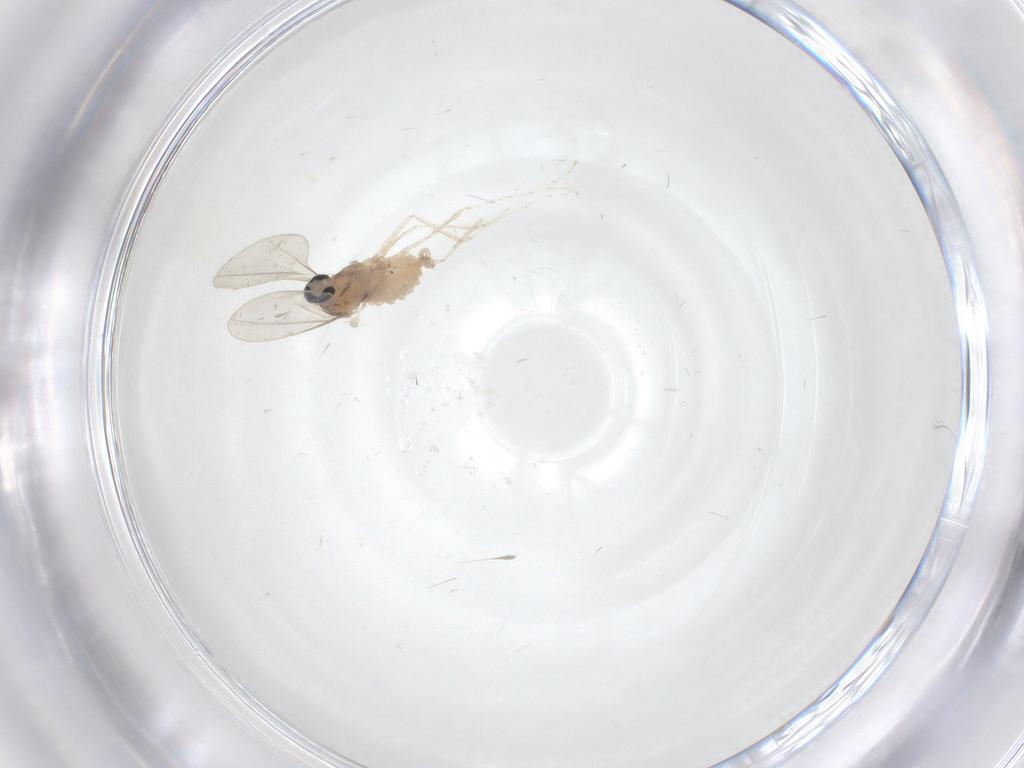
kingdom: Animalia
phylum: Arthropoda
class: Insecta
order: Diptera
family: Cecidomyiidae
